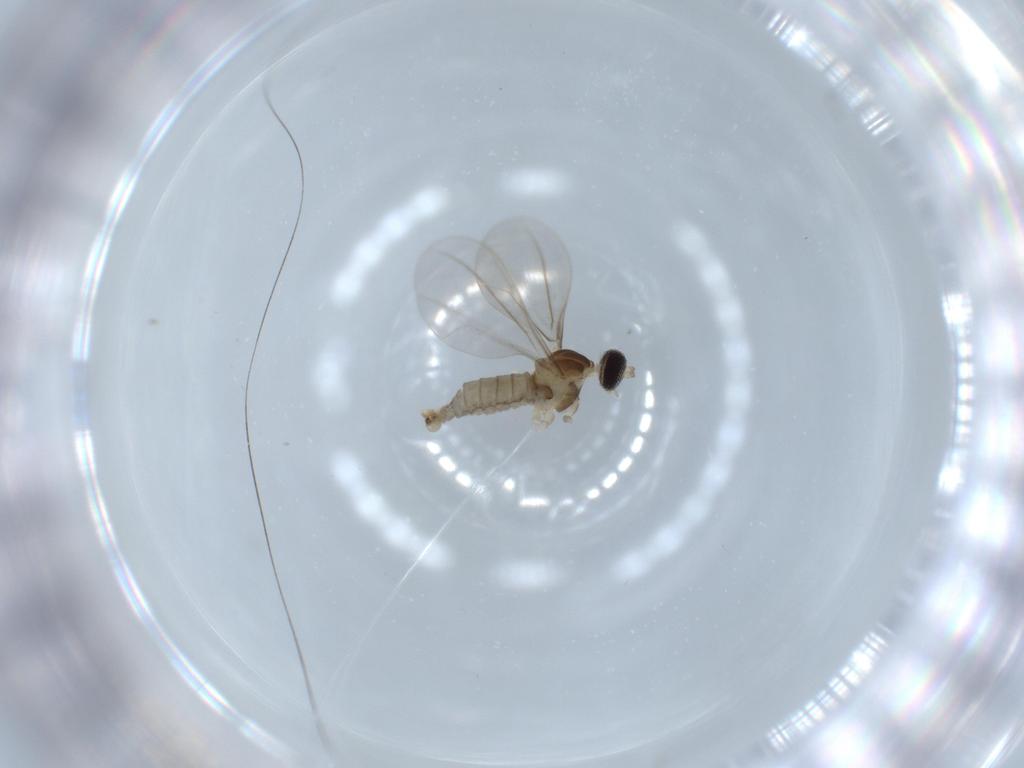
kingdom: Animalia
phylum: Arthropoda
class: Insecta
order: Diptera
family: Cecidomyiidae
